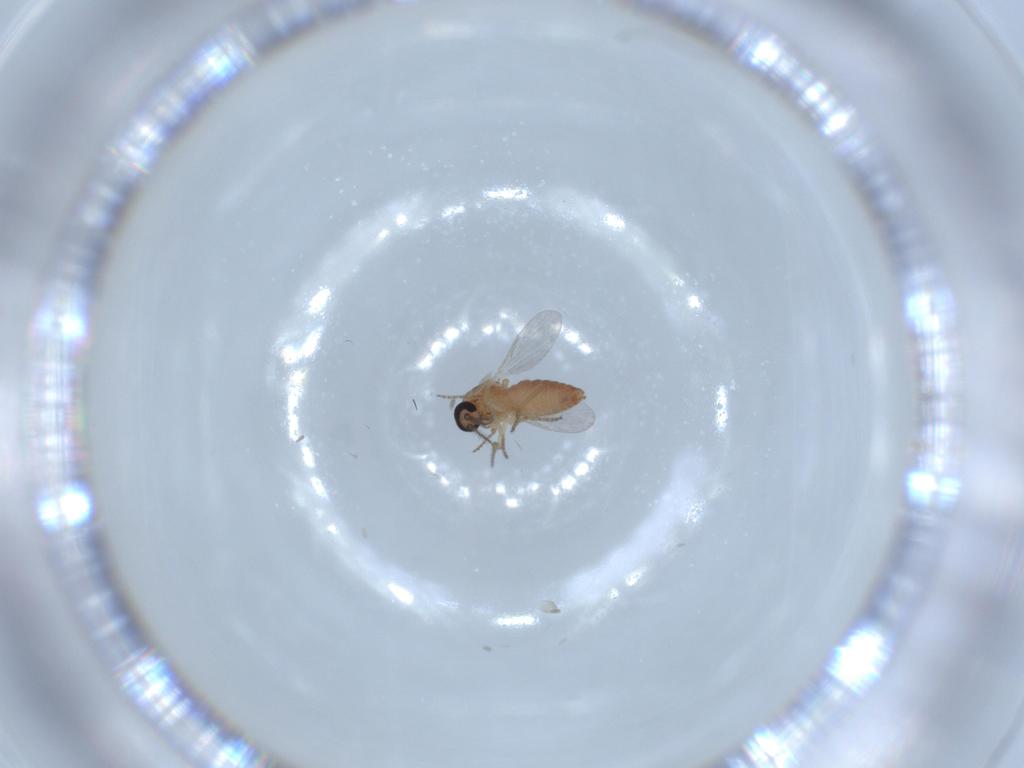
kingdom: Animalia
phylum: Arthropoda
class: Insecta
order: Diptera
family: Ceratopogonidae
